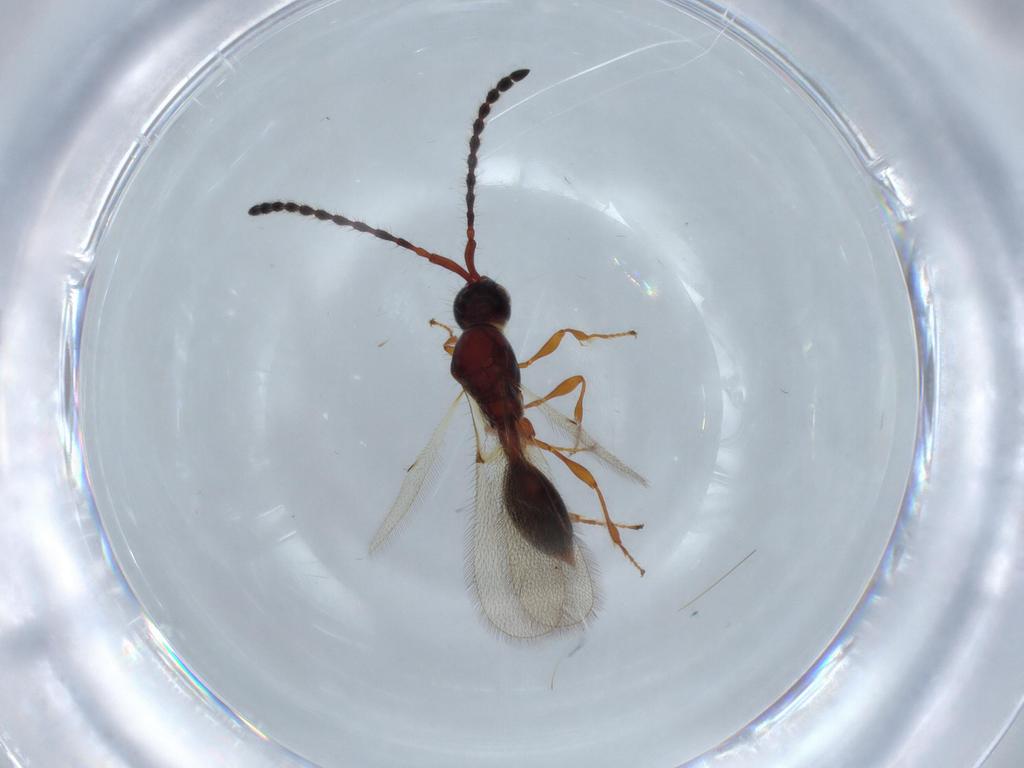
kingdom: Animalia
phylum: Arthropoda
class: Insecta
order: Hymenoptera
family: Diapriidae
